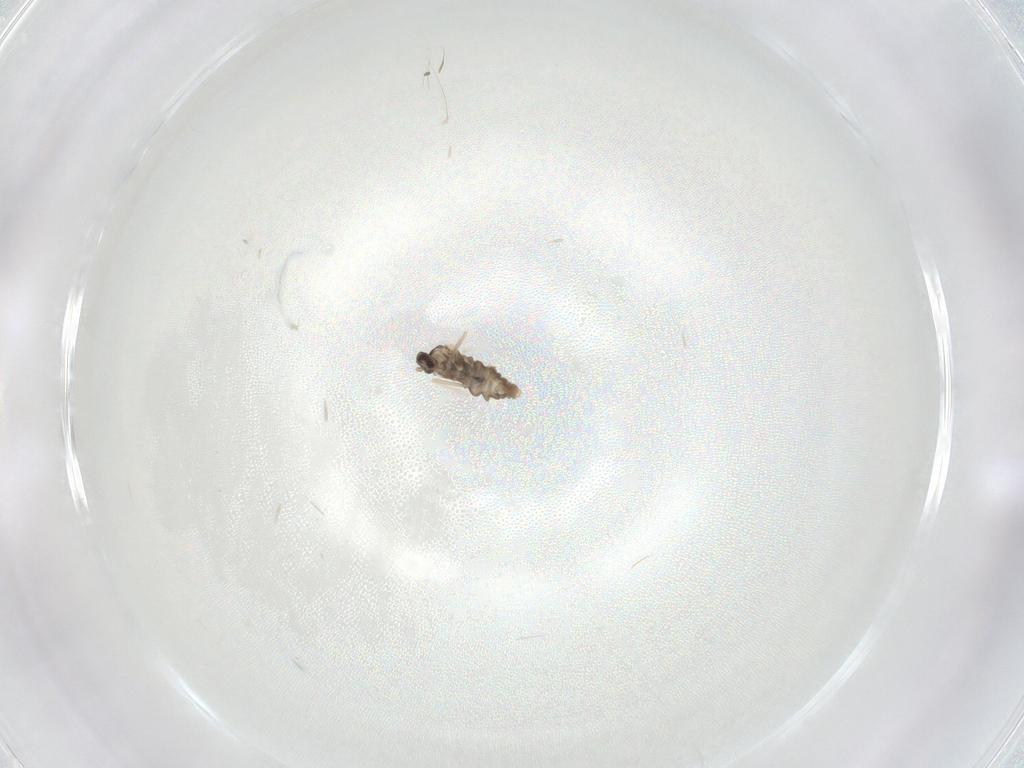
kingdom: Animalia
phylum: Arthropoda
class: Insecta
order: Diptera
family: Cecidomyiidae
